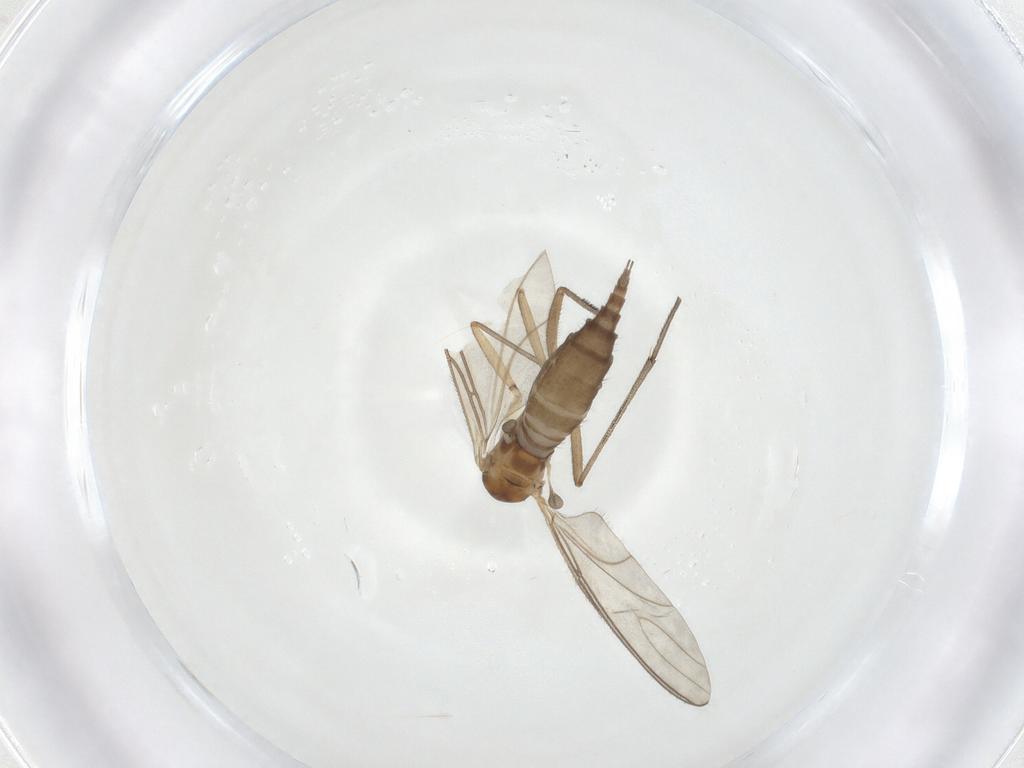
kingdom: Animalia
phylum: Arthropoda
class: Insecta
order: Diptera
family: Sciaridae
